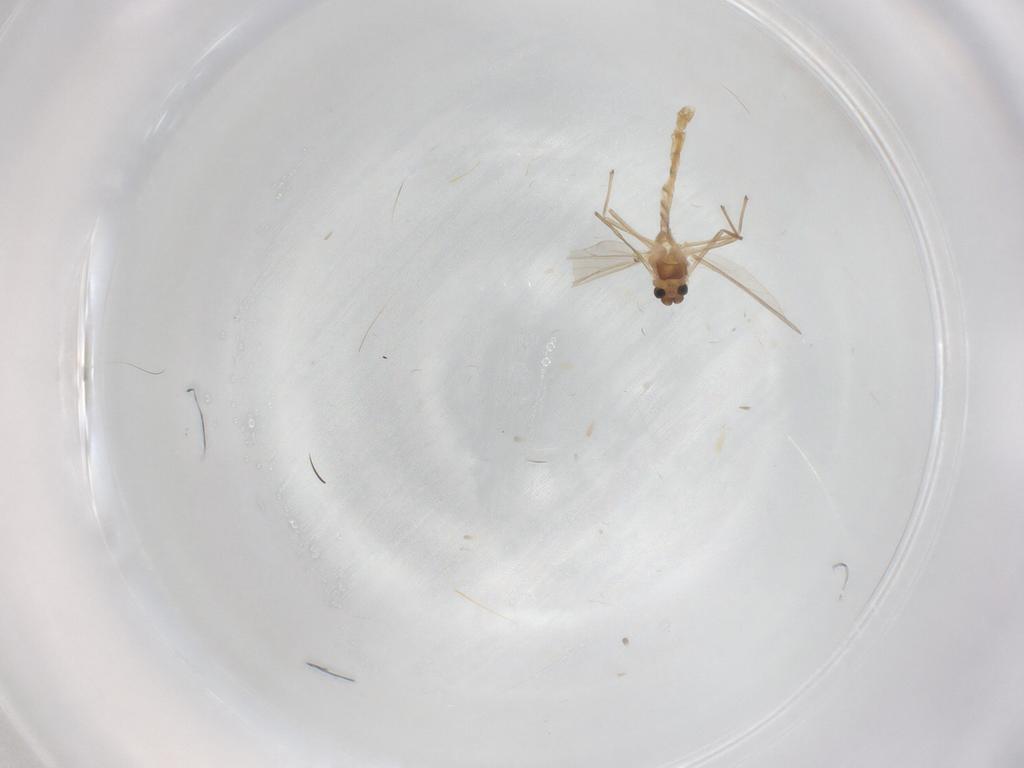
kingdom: Animalia
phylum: Arthropoda
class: Insecta
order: Diptera
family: Chironomidae
